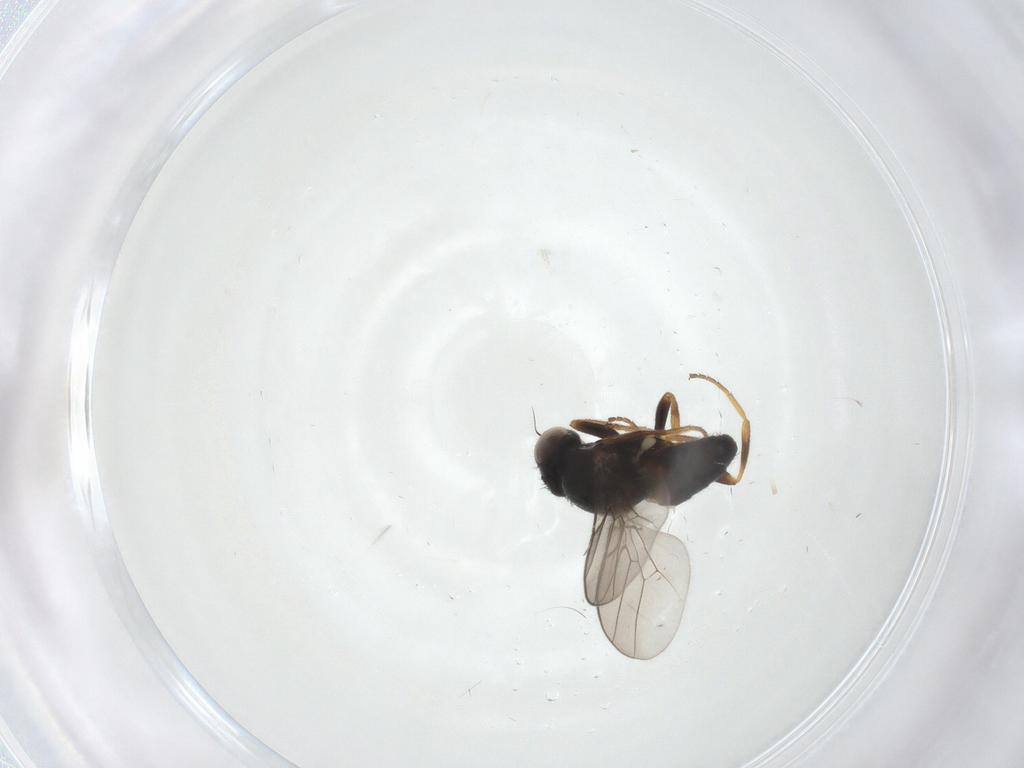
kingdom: Animalia
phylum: Arthropoda
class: Insecta
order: Diptera
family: Chloropidae
